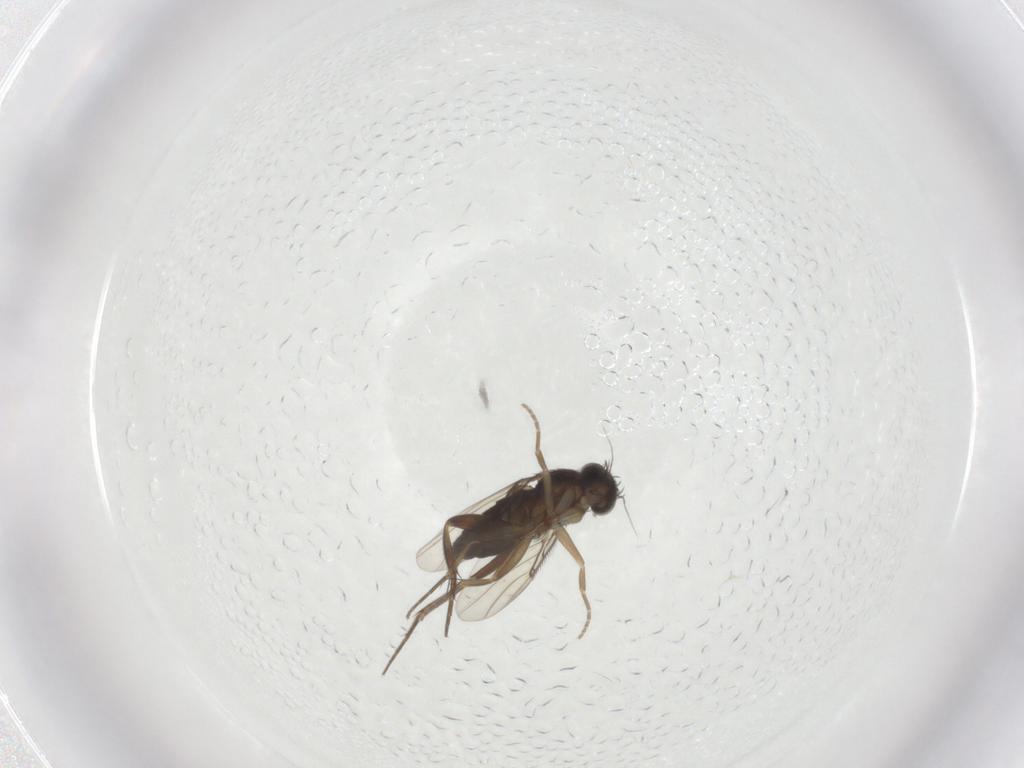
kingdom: Animalia
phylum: Arthropoda
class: Insecta
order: Diptera
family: Phoridae
